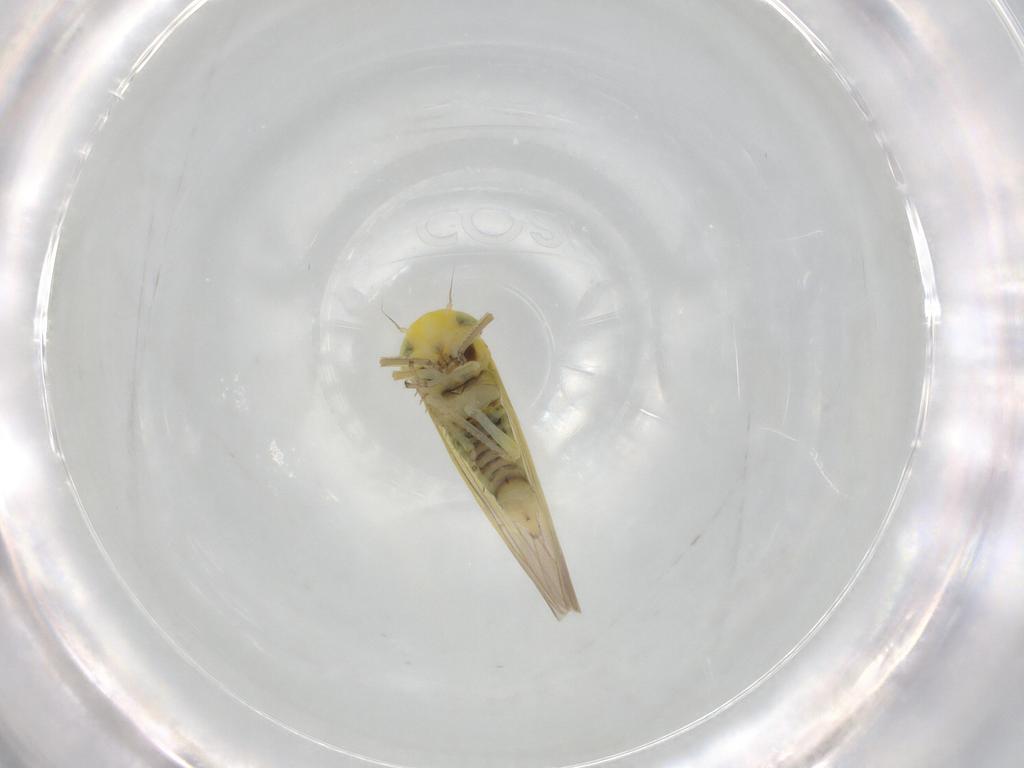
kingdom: Animalia
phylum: Arthropoda
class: Insecta
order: Hemiptera
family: Cicadellidae
